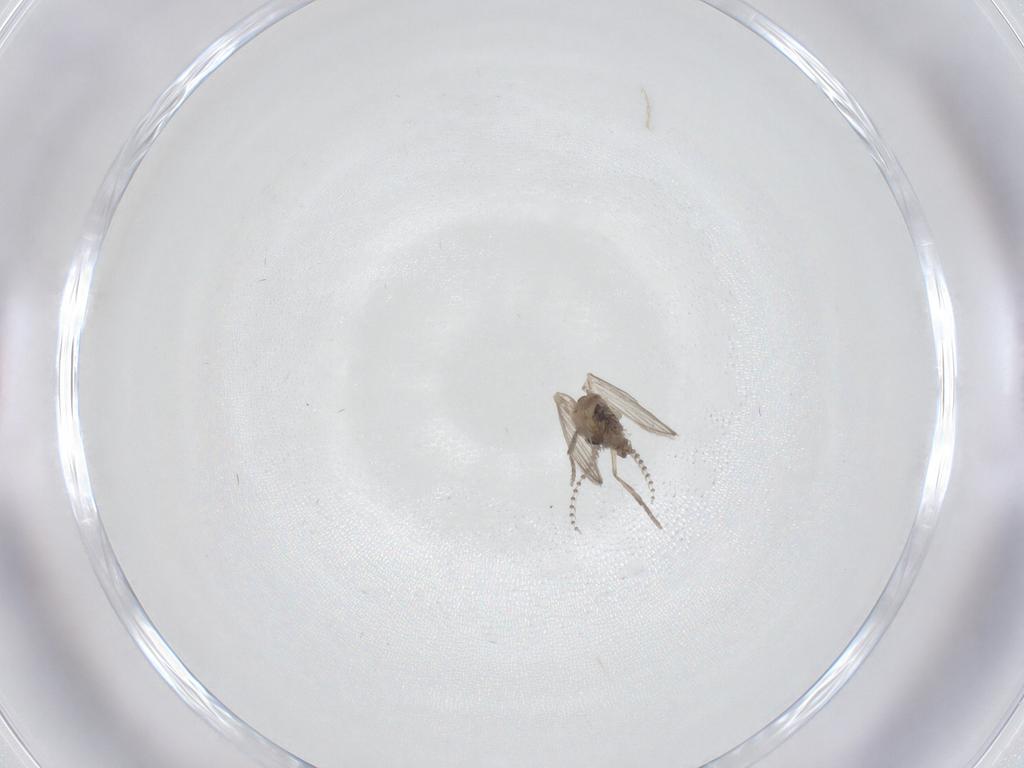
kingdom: Animalia
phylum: Arthropoda
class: Insecta
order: Diptera
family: Psychodidae
